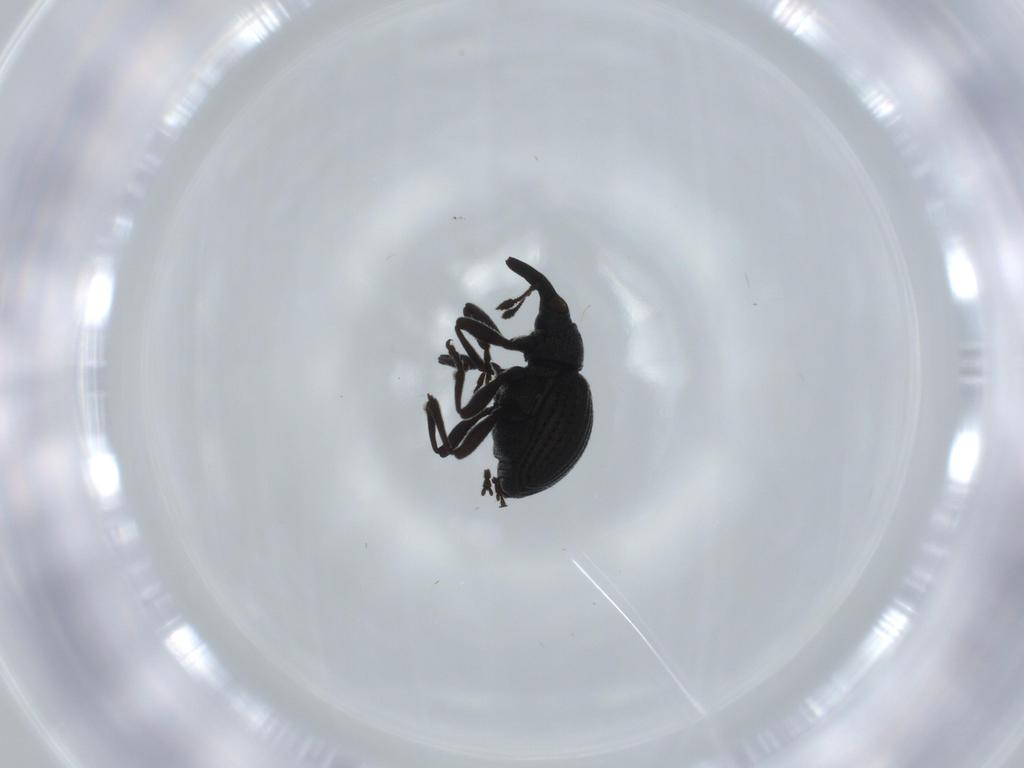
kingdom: Animalia
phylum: Arthropoda
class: Insecta
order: Coleoptera
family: Brentidae
